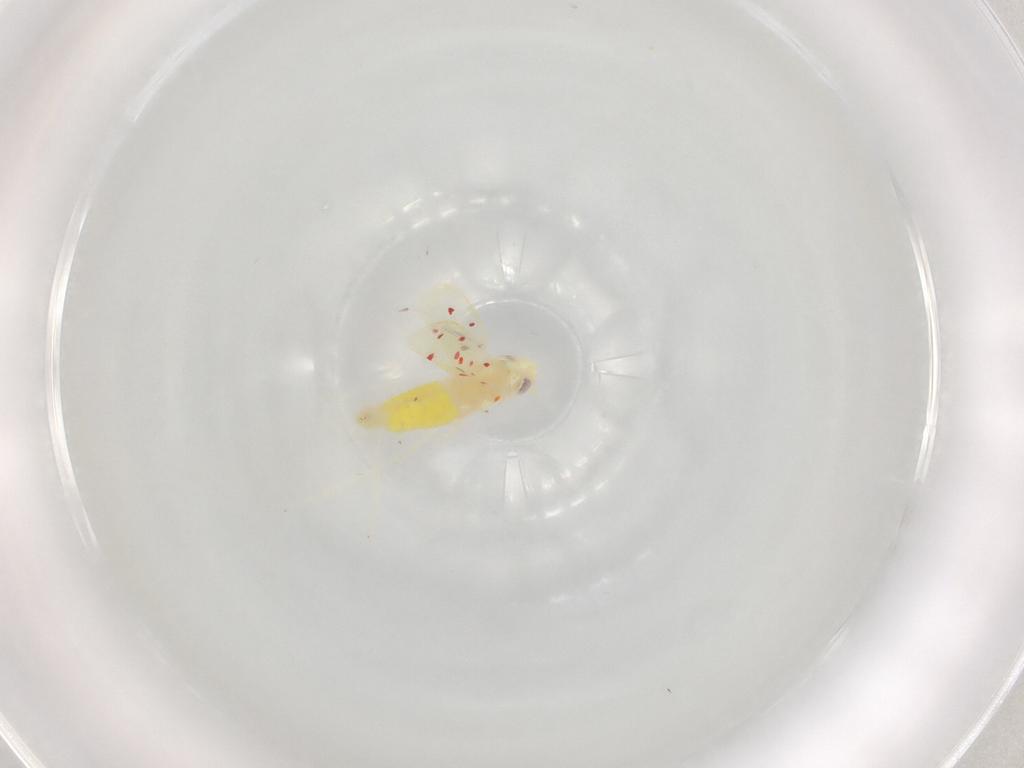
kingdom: Animalia
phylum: Arthropoda
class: Insecta
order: Hemiptera
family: Cicadellidae
